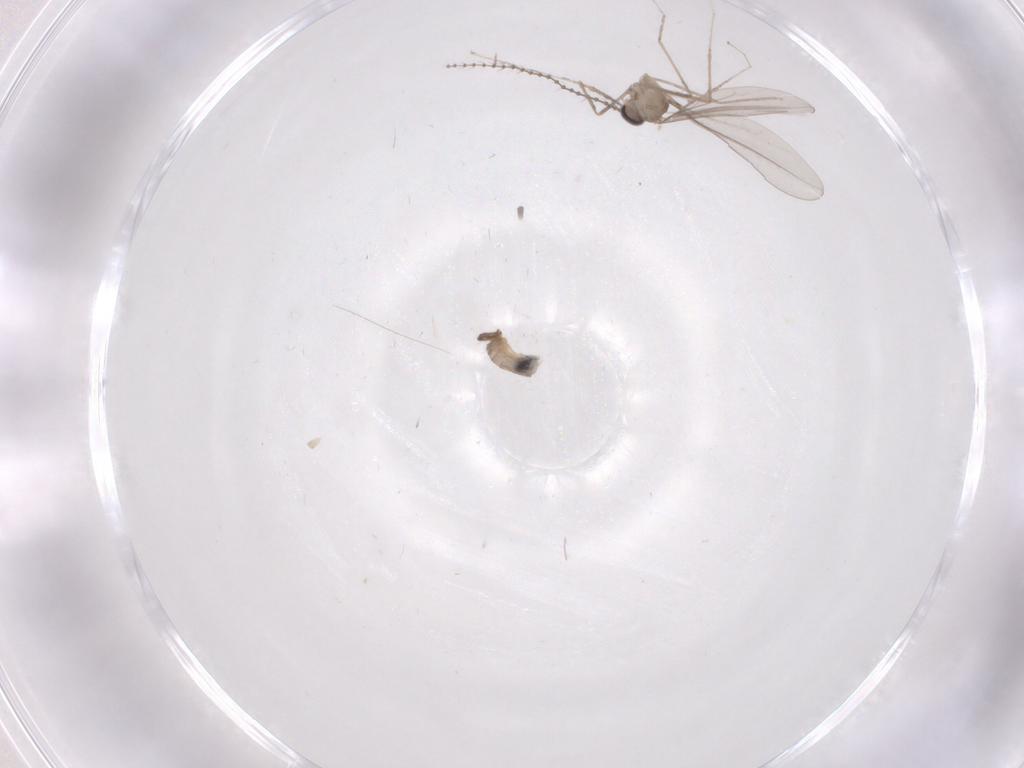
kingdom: Animalia
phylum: Arthropoda
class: Insecta
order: Diptera
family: Cecidomyiidae
